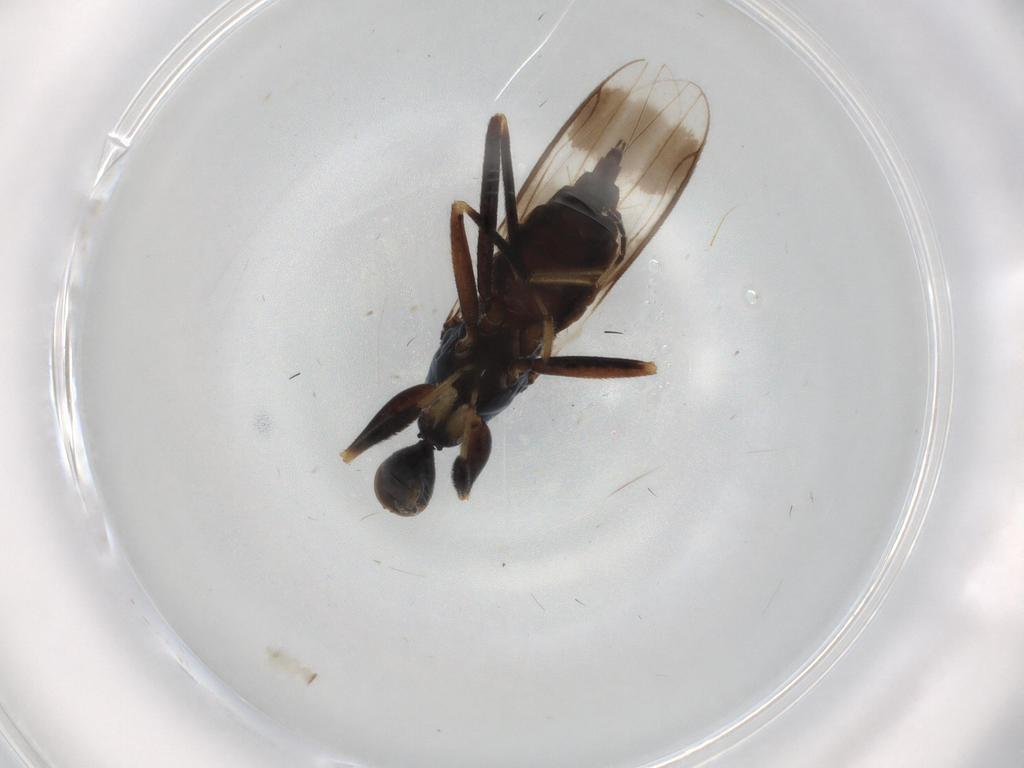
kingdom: Animalia
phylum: Arthropoda
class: Insecta
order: Diptera
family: Hybotidae
